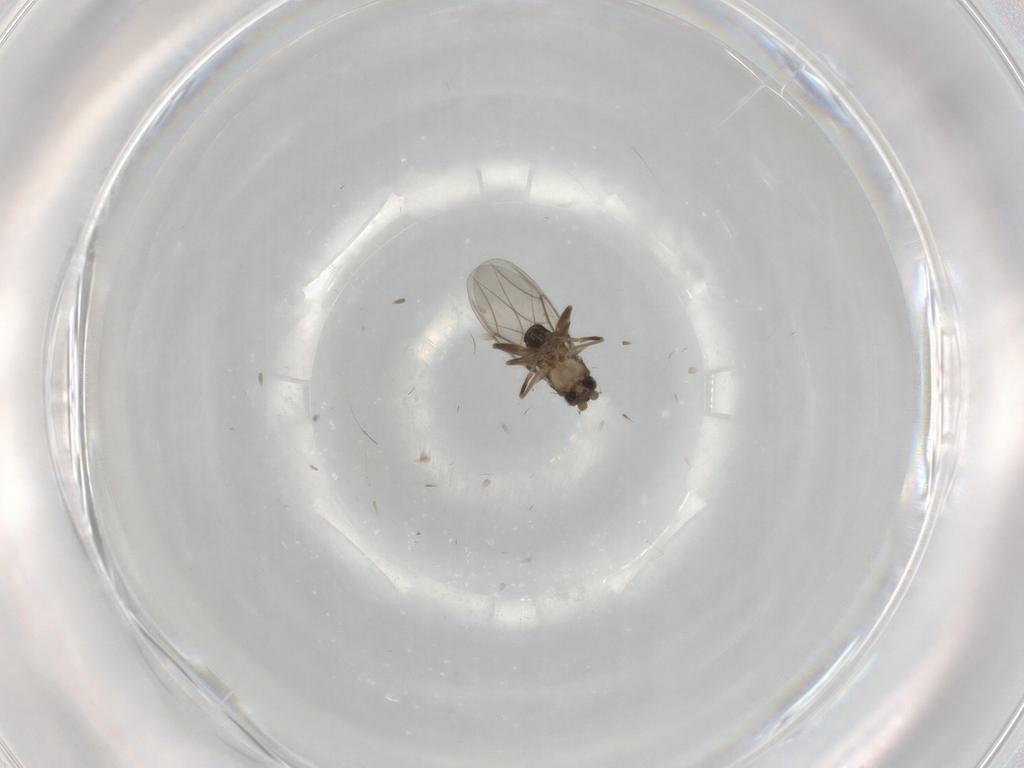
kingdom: Animalia
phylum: Arthropoda
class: Insecta
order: Diptera
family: Phoridae
